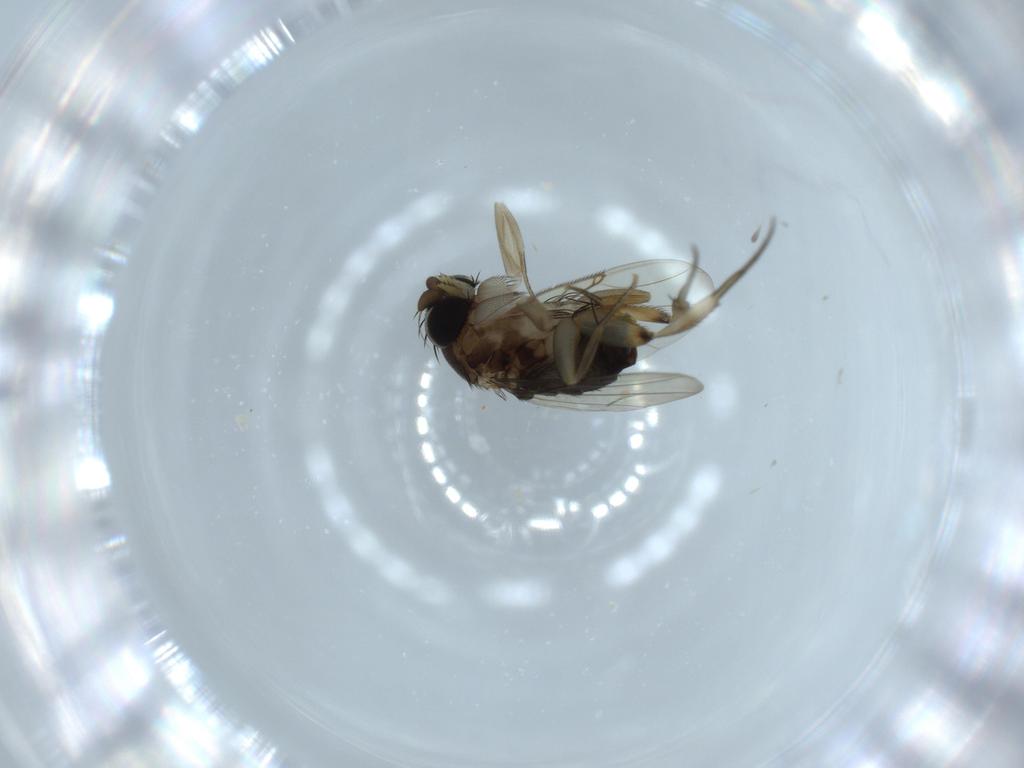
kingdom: Animalia
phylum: Arthropoda
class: Insecta
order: Diptera
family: Phoridae
